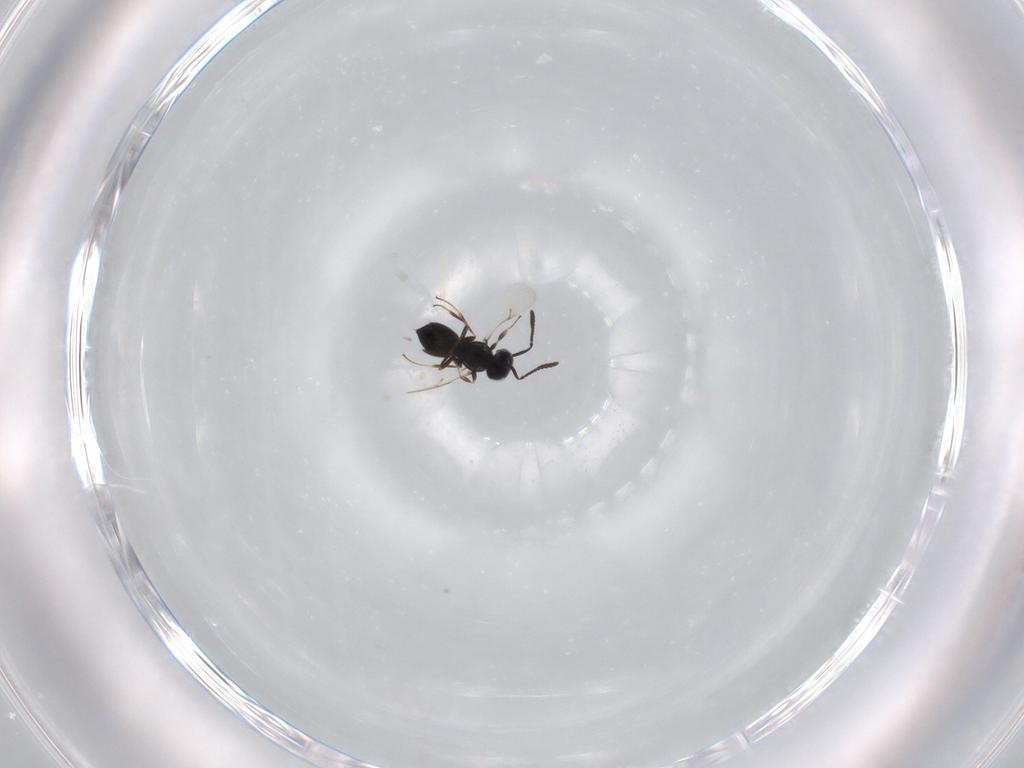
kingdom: Animalia
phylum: Arthropoda
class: Insecta
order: Hymenoptera
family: Scelionidae
